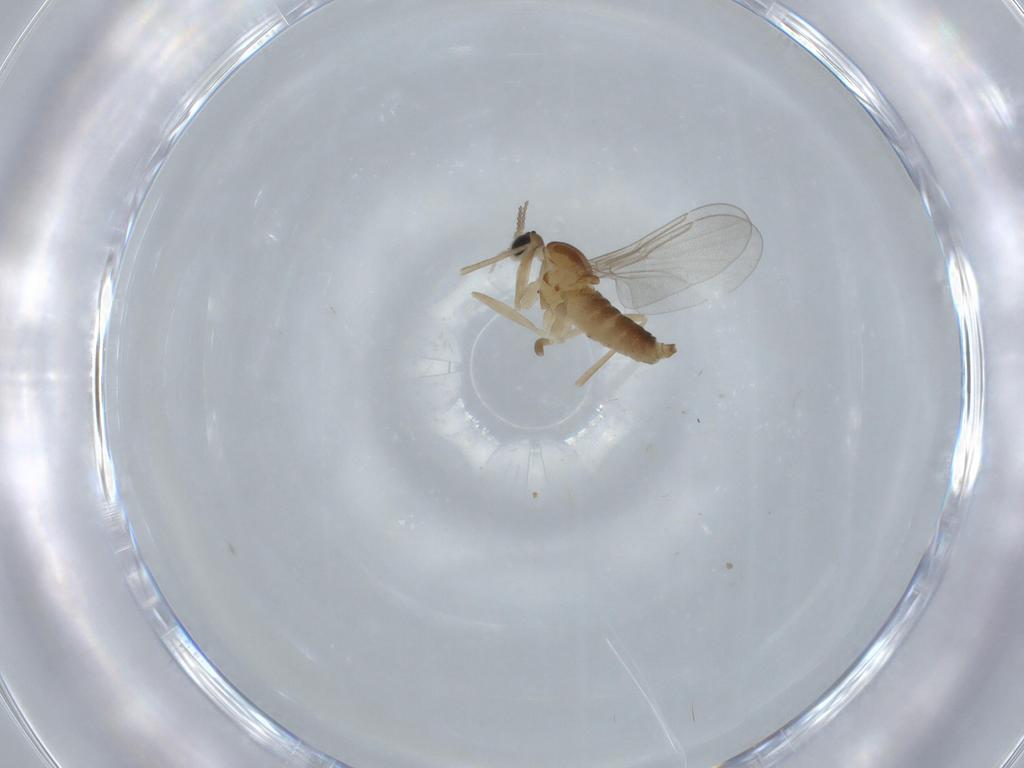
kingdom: Animalia
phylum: Arthropoda
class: Insecta
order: Diptera
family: Cecidomyiidae
